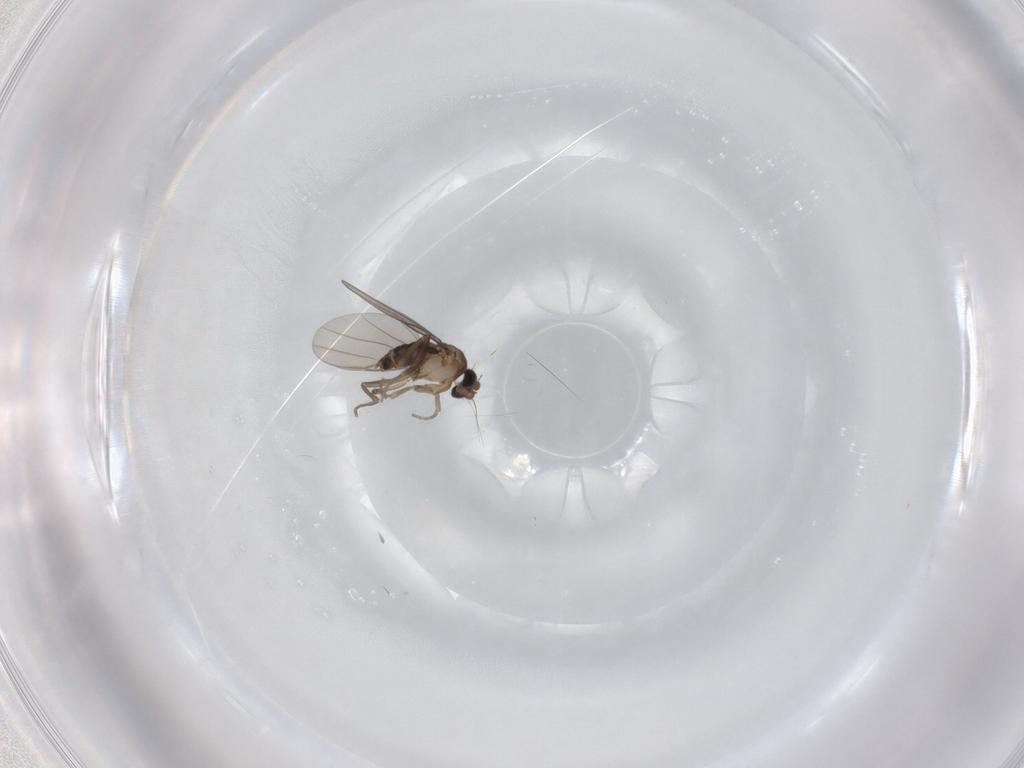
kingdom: Animalia
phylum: Arthropoda
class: Insecta
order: Diptera
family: Phoridae
